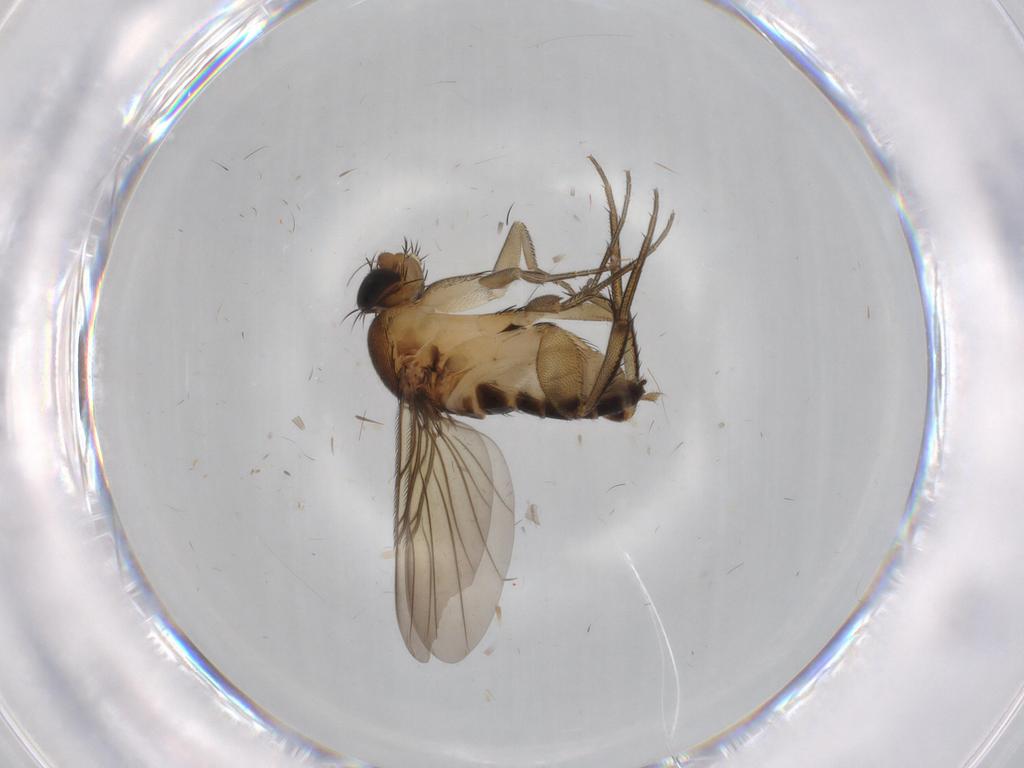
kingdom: Animalia
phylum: Arthropoda
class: Insecta
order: Diptera
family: Phoridae
